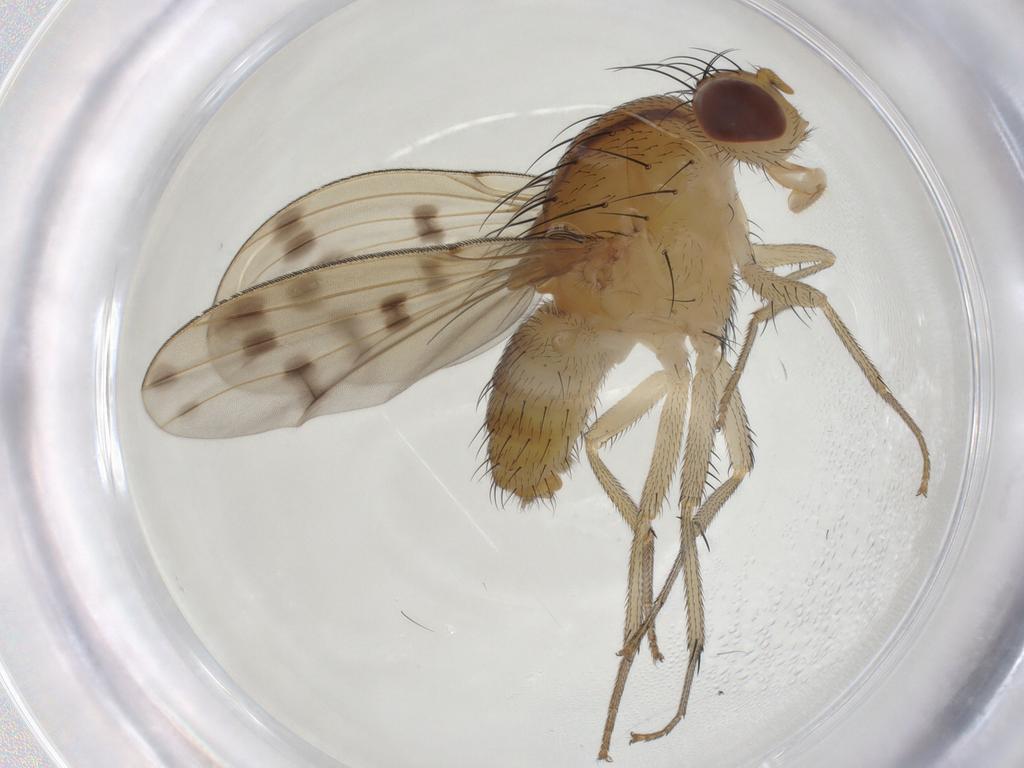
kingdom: Animalia
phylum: Arthropoda
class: Insecta
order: Diptera
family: Lauxaniidae
